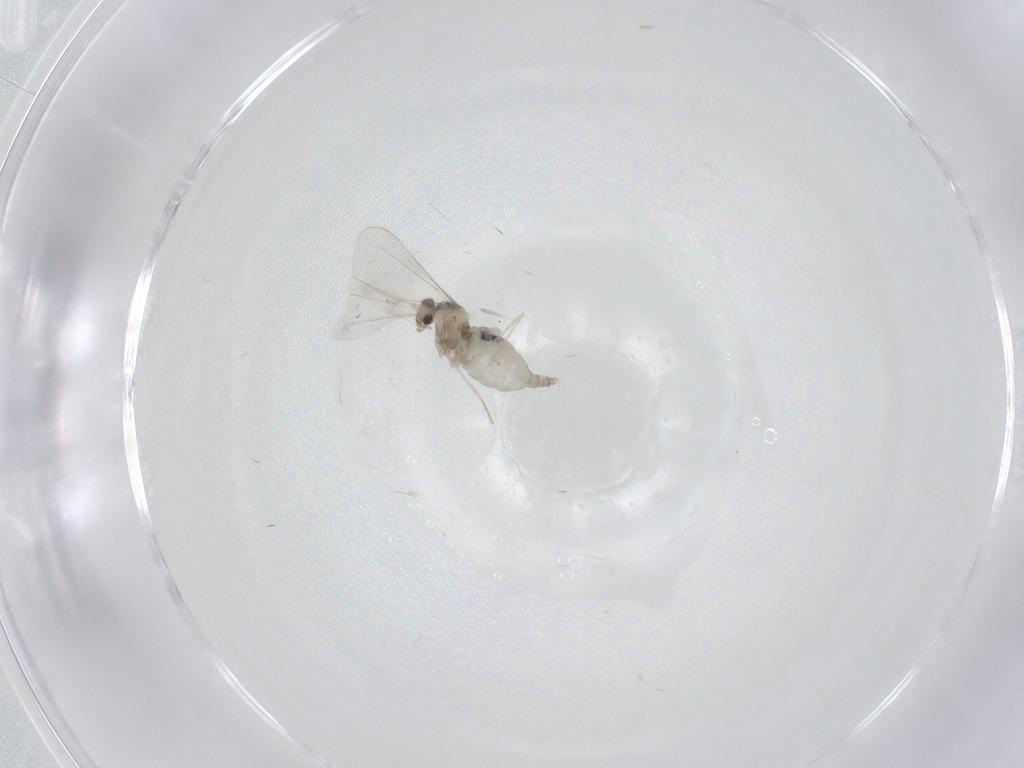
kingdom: Animalia
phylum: Arthropoda
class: Insecta
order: Diptera
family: Cecidomyiidae
